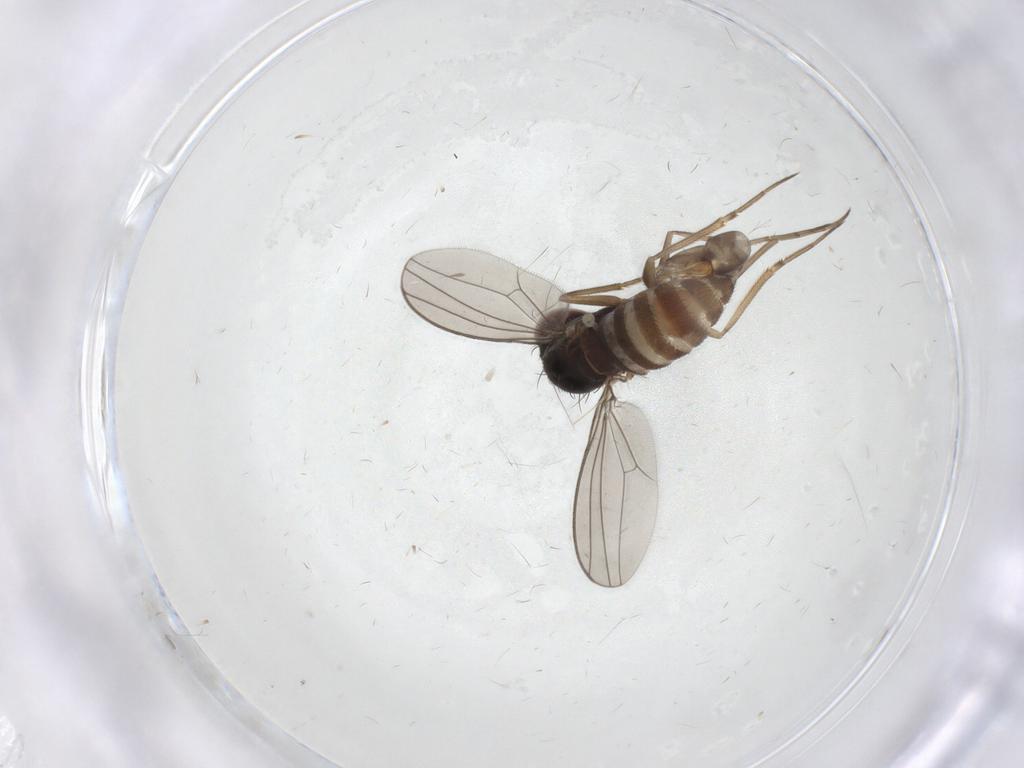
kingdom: Animalia
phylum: Arthropoda
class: Insecta
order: Diptera
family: Dolichopodidae
